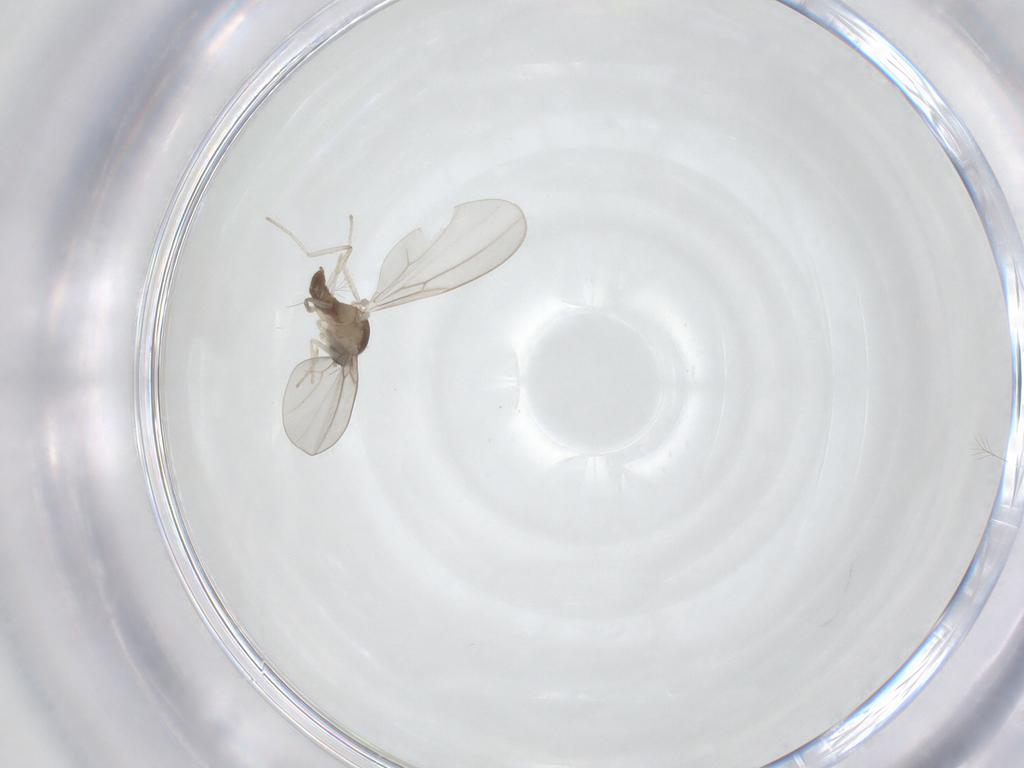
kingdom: Animalia
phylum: Arthropoda
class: Insecta
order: Diptera
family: Cecidomyiidae
